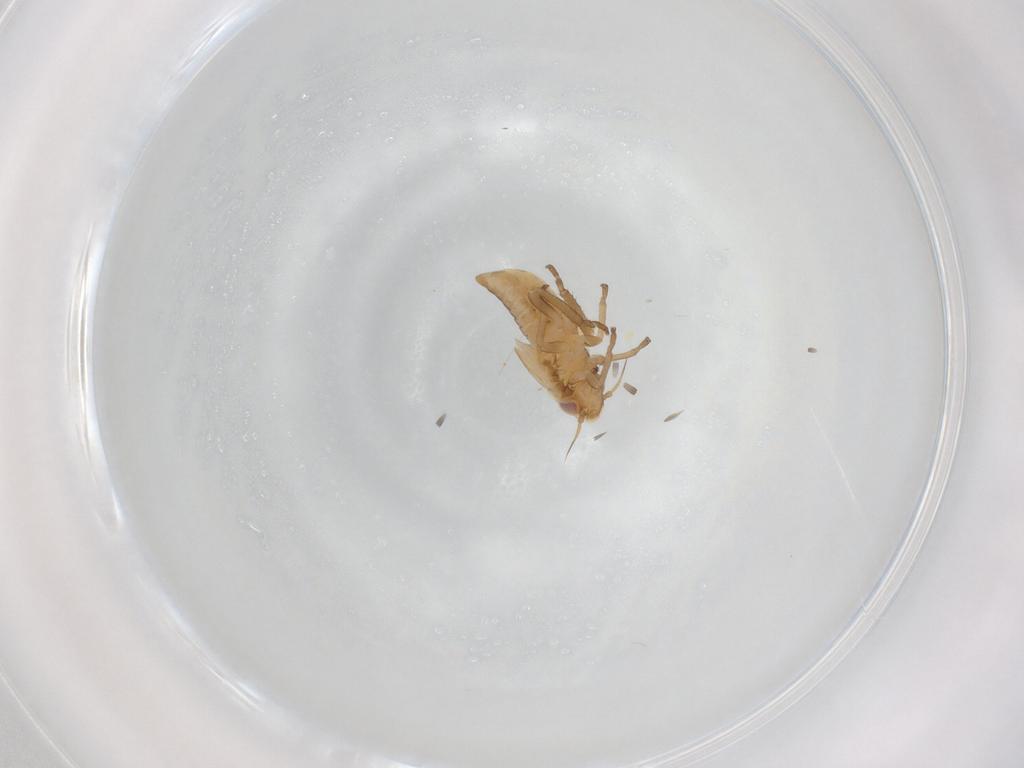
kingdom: Animalia
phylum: Arthropoda
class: Insecta
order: Hemiptera
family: Cicadellidae
